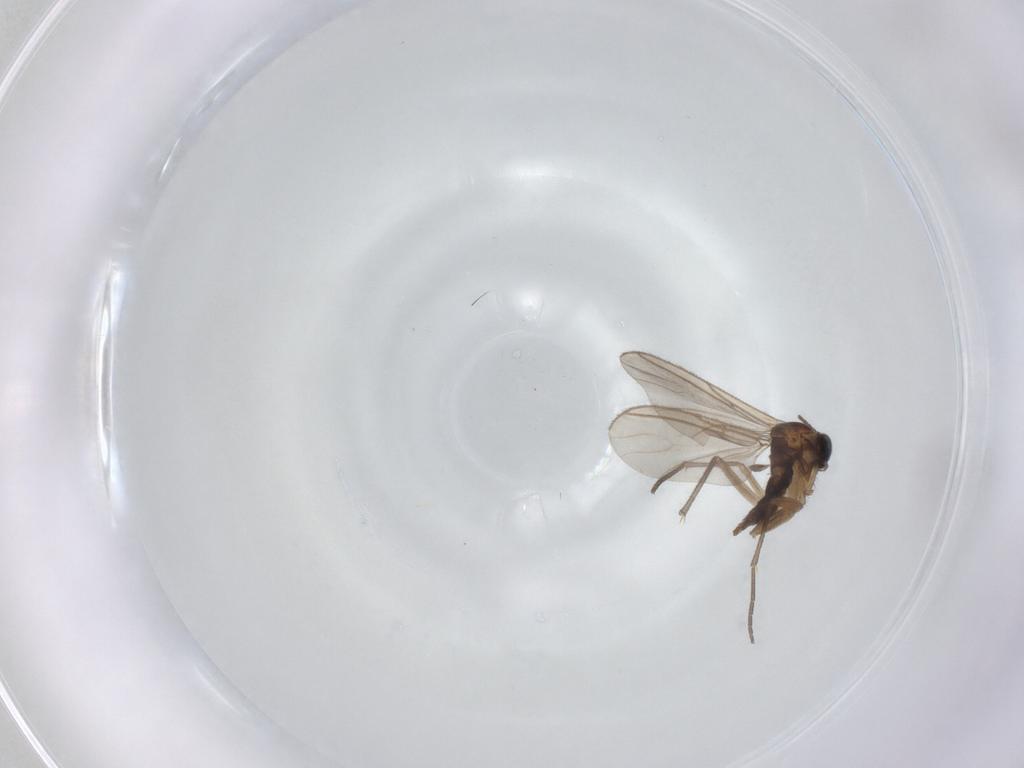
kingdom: Animalia
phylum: Arthropoda
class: Insecta
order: Diptera
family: Sciaridae
